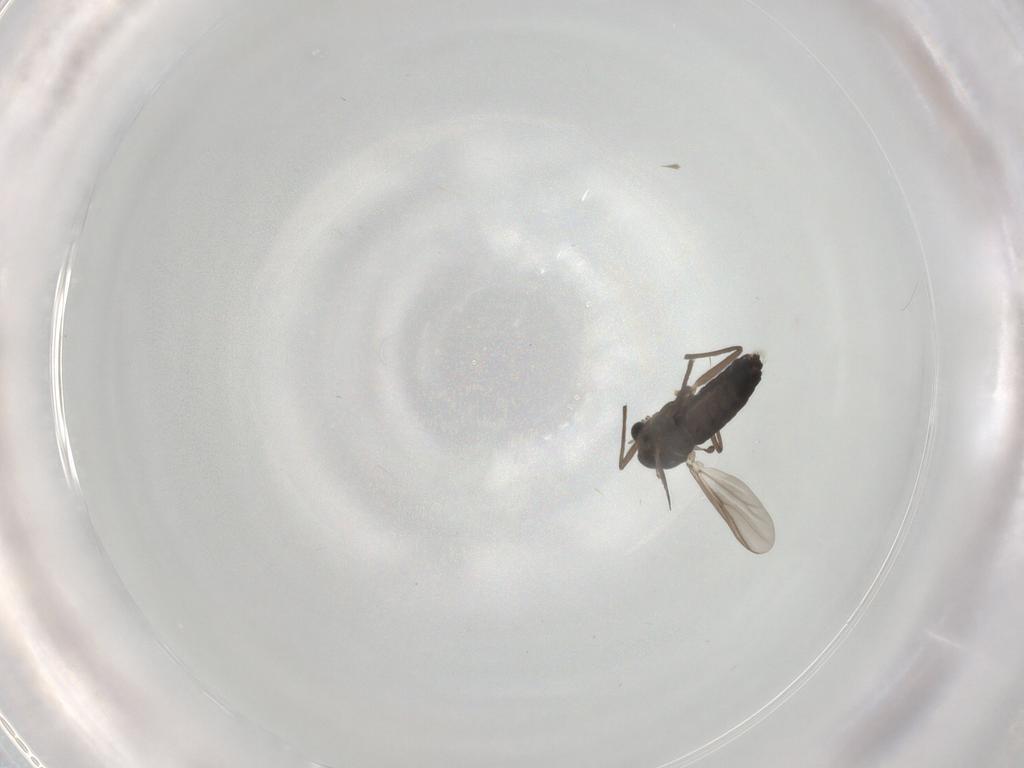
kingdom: Animalia
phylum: Arthropoda
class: Insecta
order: Diptera
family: Chironomidae
